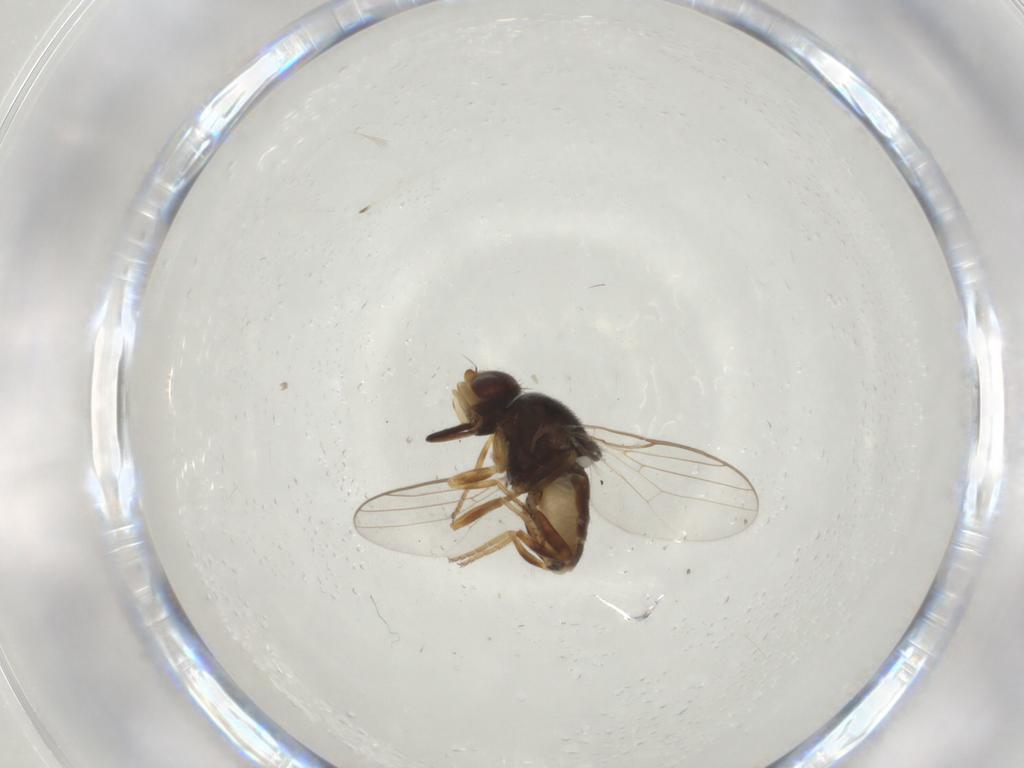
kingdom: Animalia
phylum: Arthropoda
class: Insecta
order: Diptera
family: Chloropidae
